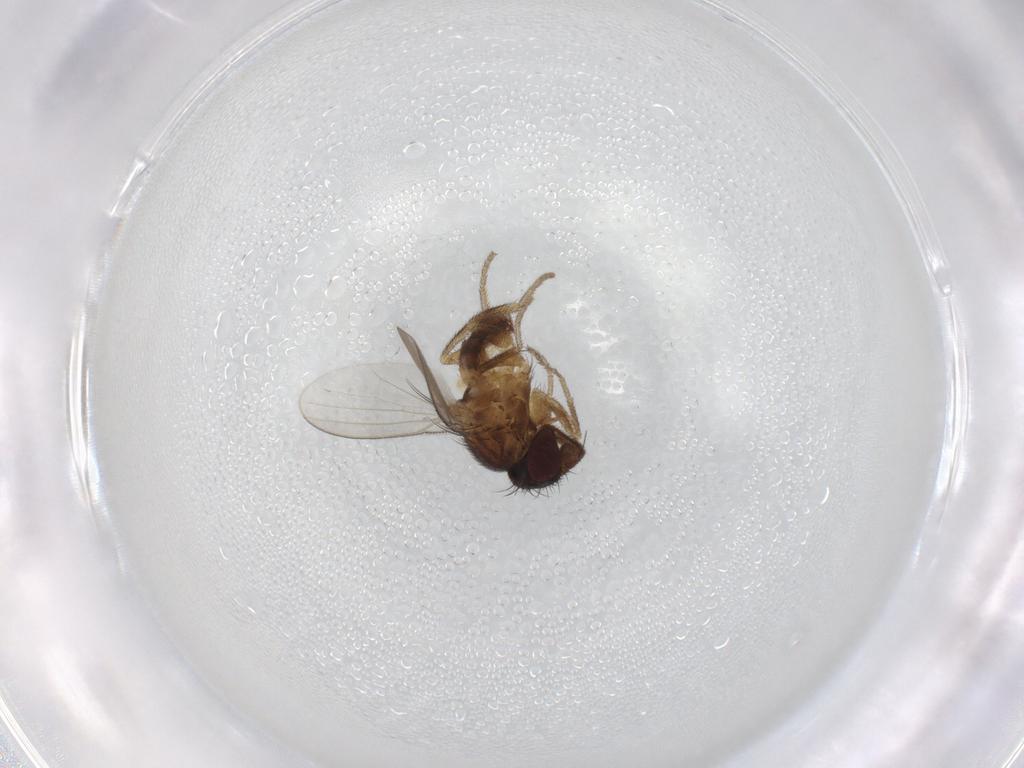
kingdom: Animalia
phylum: Arthropoda
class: Insecta
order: Diptera
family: Milichiidae
